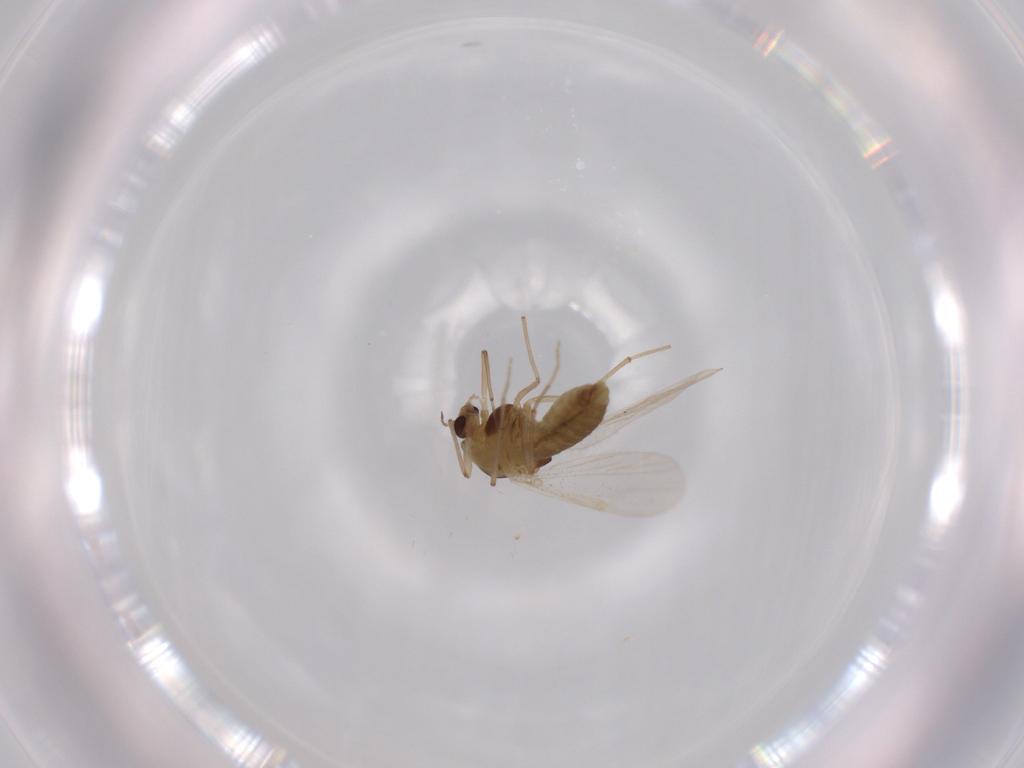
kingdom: Animalia
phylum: Arthropoda
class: Insecta
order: Diptera
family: Chironomidae
